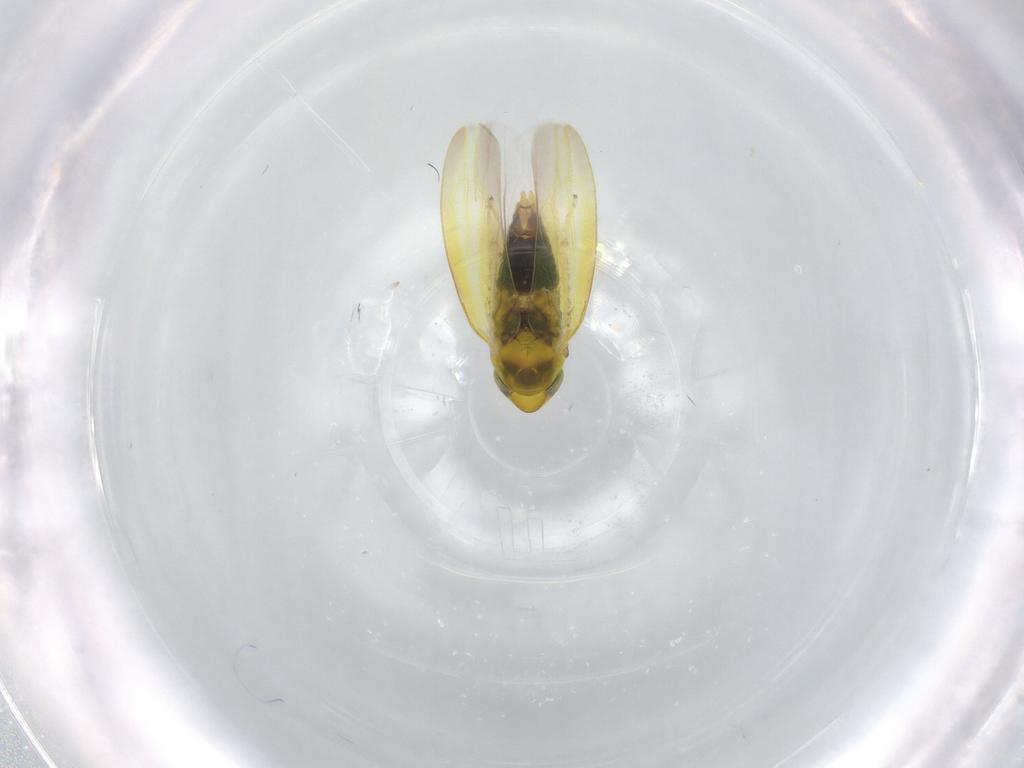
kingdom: Animalia
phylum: Arthropoda
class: Insecta
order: Hemiptera
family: Cicadellidae
